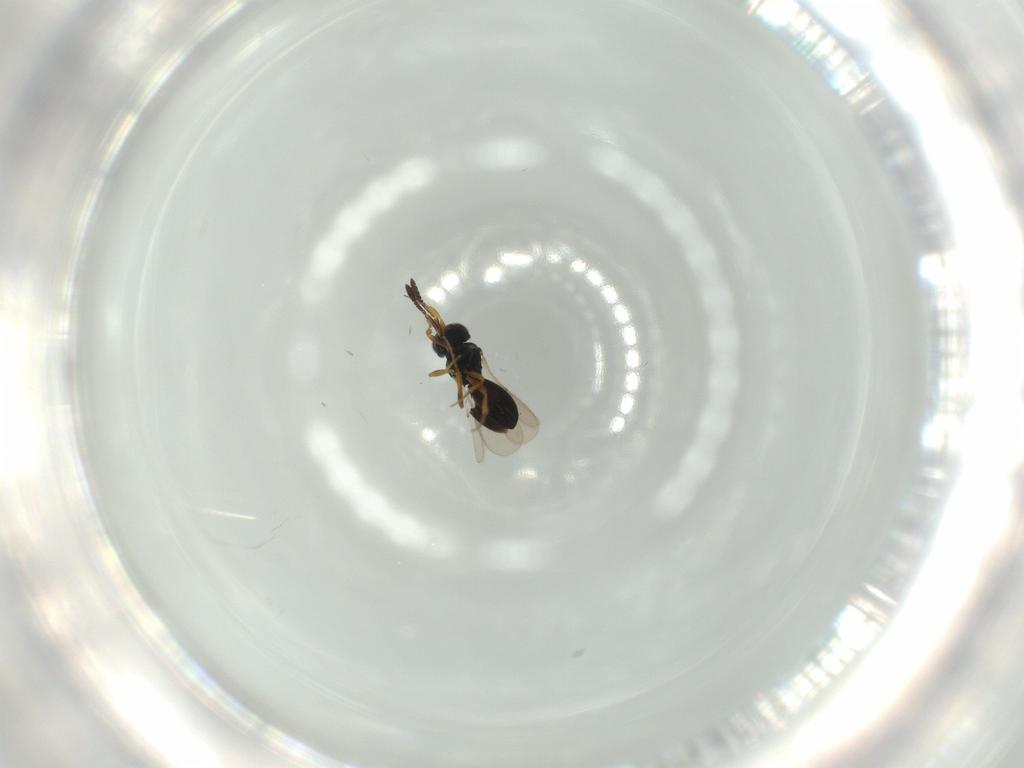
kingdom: Animalia
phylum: Arthropoda
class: Insecta
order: Hymenoptera
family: Scelionidae
